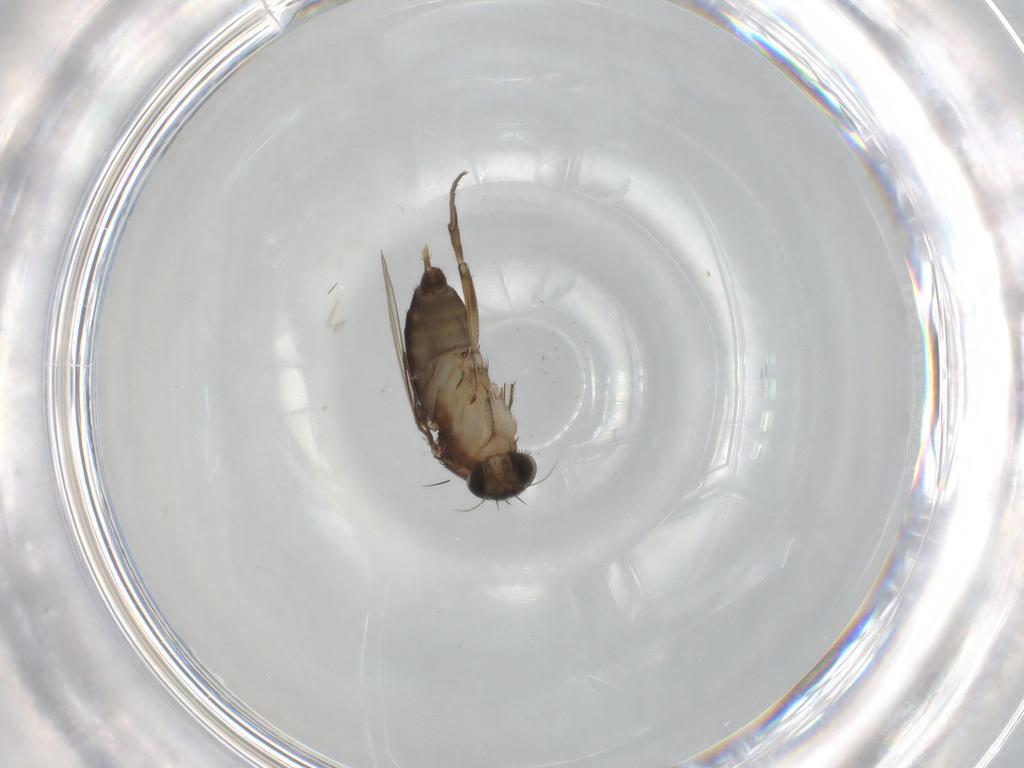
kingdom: Animalia
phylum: Arthropoda
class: Insecta
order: Diptera
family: Phoridae
